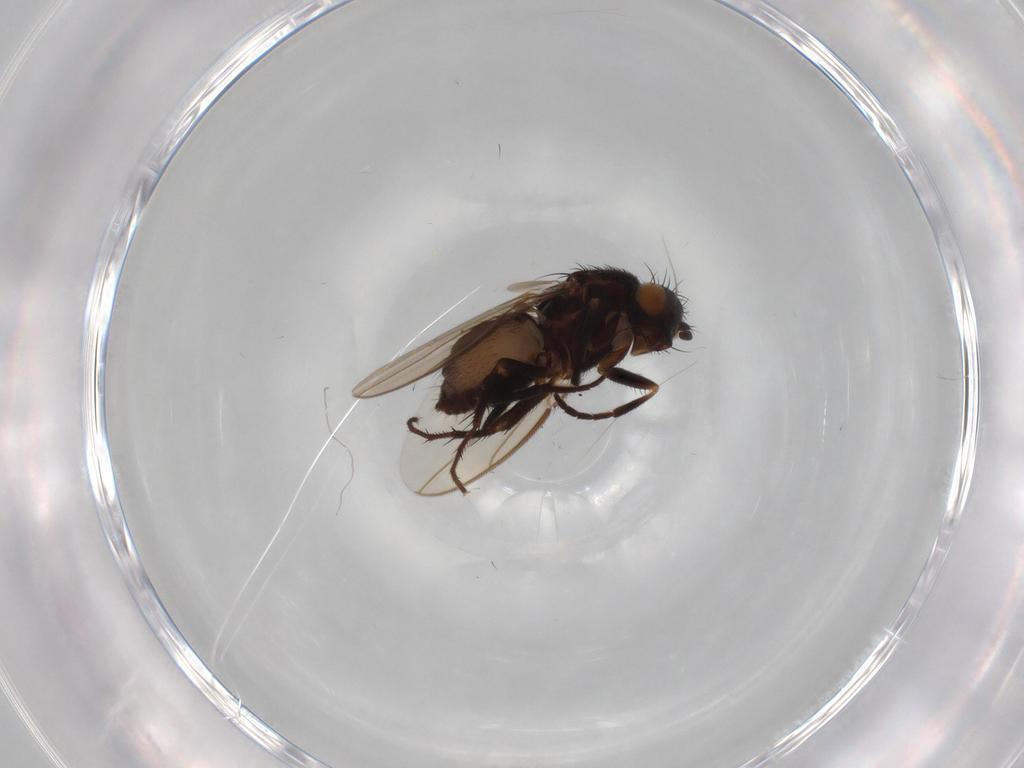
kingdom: Animalia
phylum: Arthropoda
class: Insecta
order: Diptera
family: Sphaeroceridae
